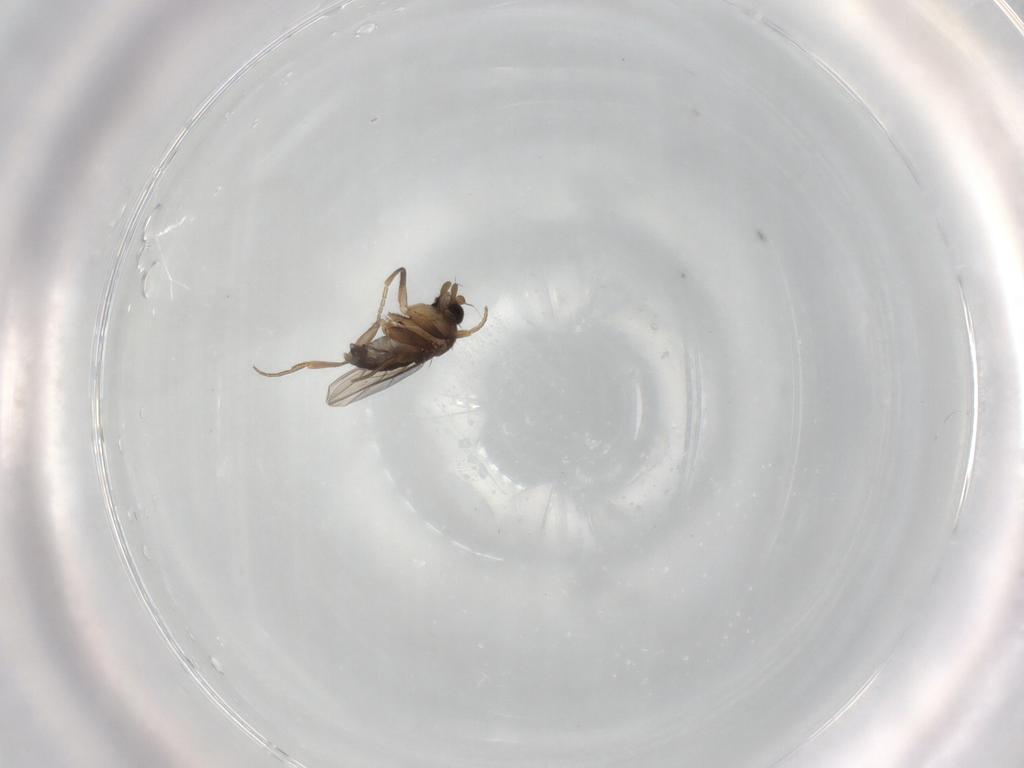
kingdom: Animalia
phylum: Arthropoda
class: Insecta
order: Diptera
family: Phoridae
